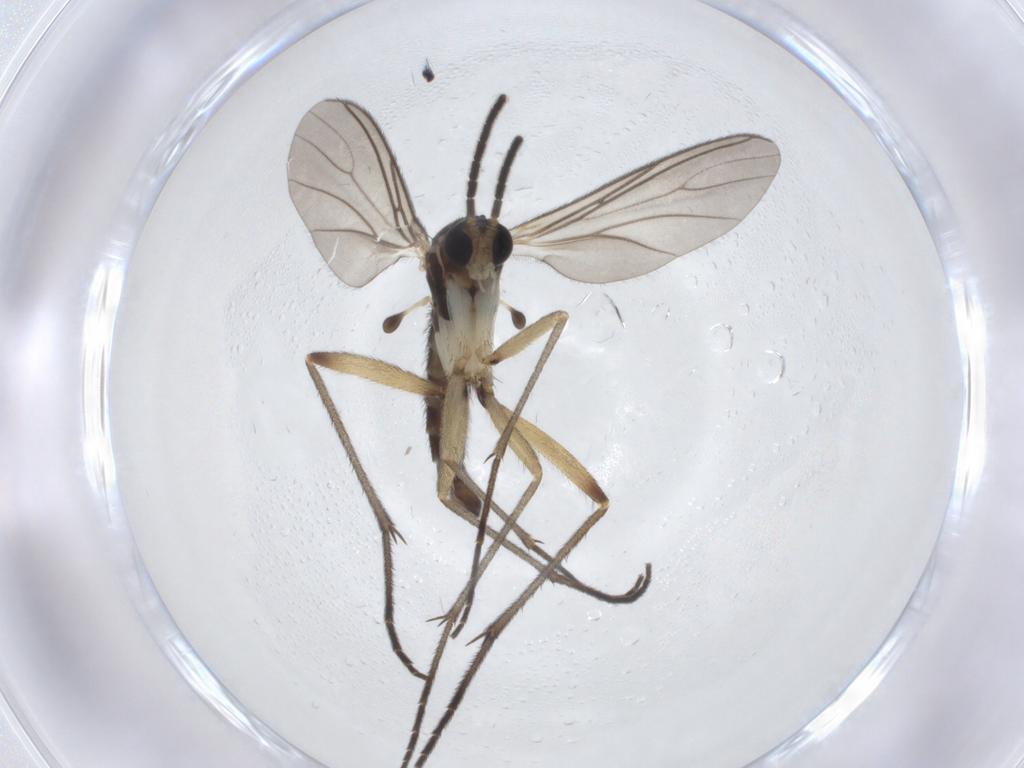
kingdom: Animalia
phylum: Arthropoda
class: Insecta
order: Diptera
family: Sciaridae
